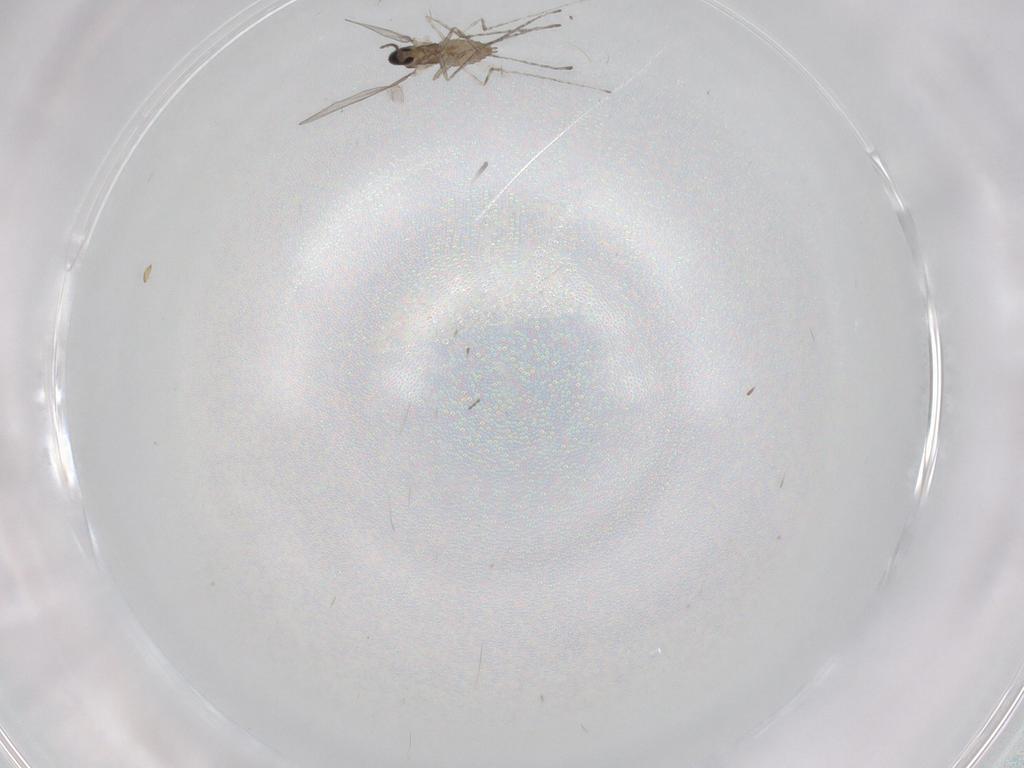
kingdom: Animalia
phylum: Arthropoda
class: Insecta
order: Diptera
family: Cecidomyiidae
